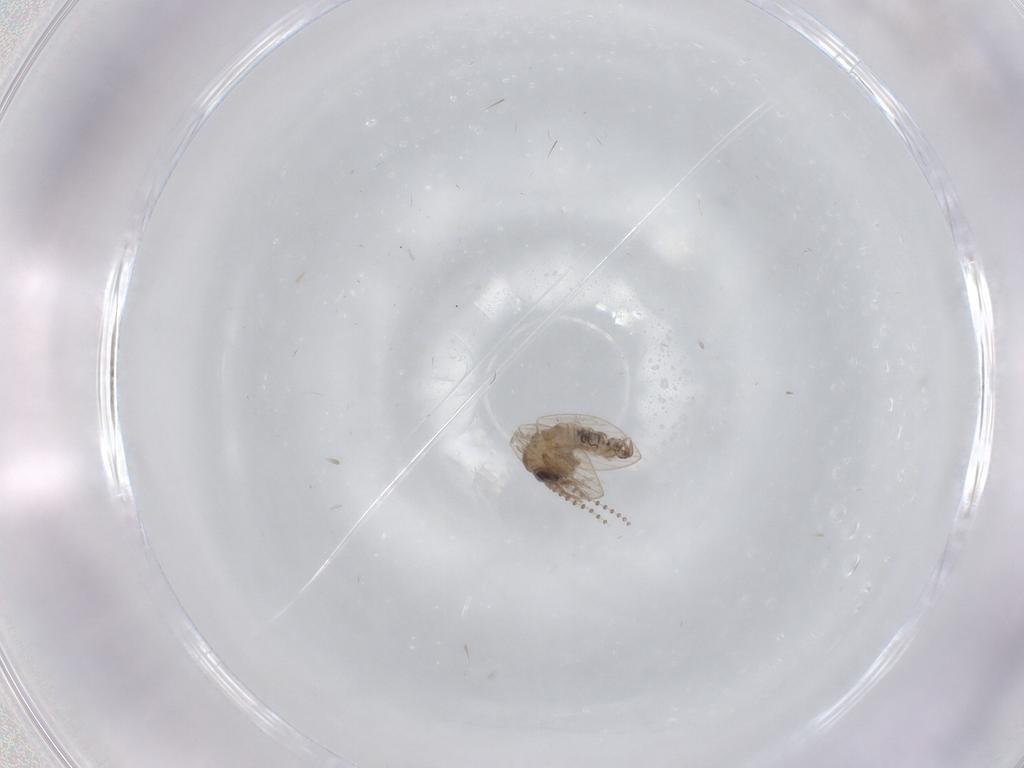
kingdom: Animalia
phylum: Arthropoda
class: Insecta
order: Diptera
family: Psychodidae
